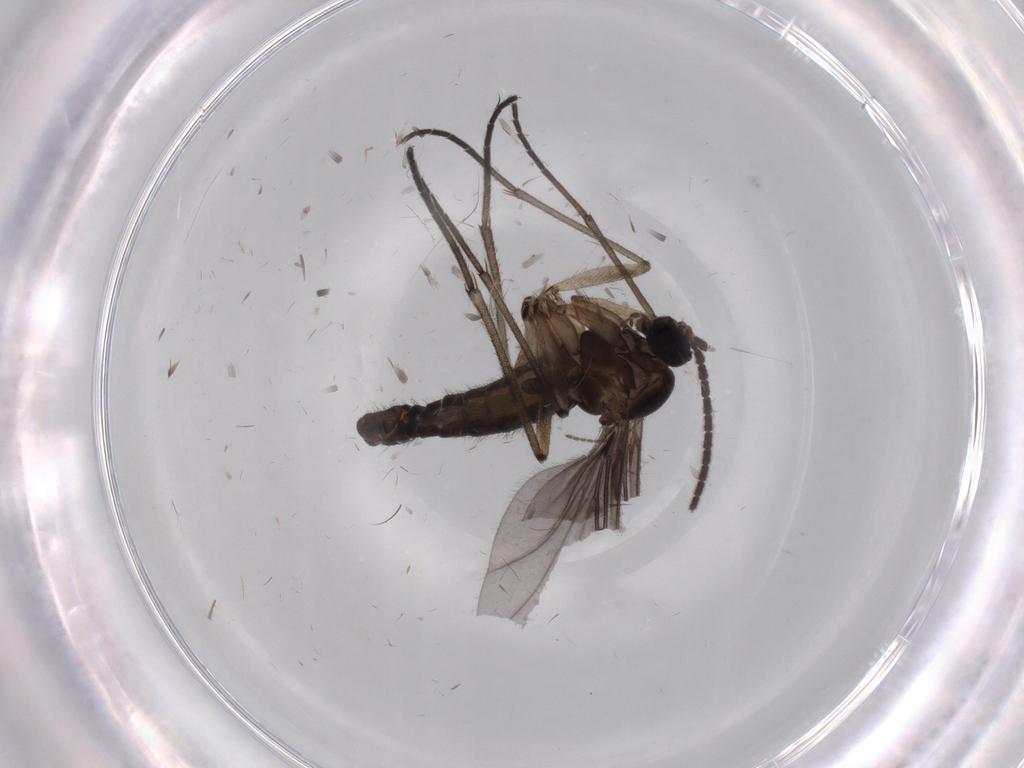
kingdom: Animalia
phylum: Arthropoda
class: Insecta
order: Diptera
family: Sciaridae
